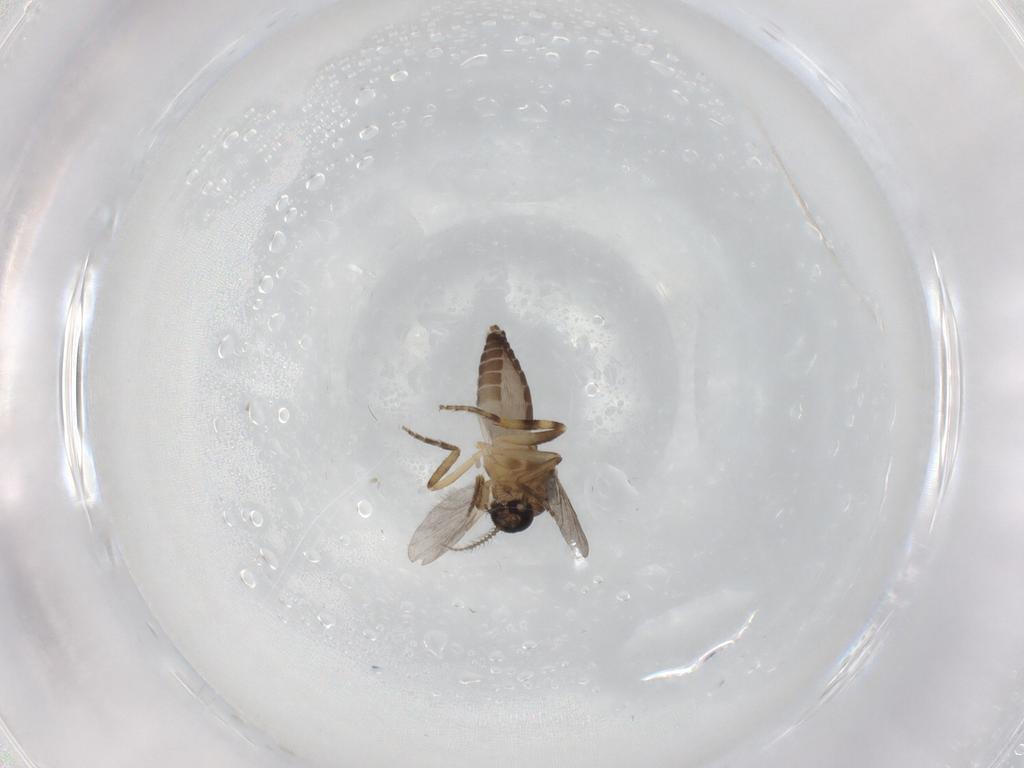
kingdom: Animalia
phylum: Arthropoda
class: Insecta
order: Diptera
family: Ceratopogonidae
